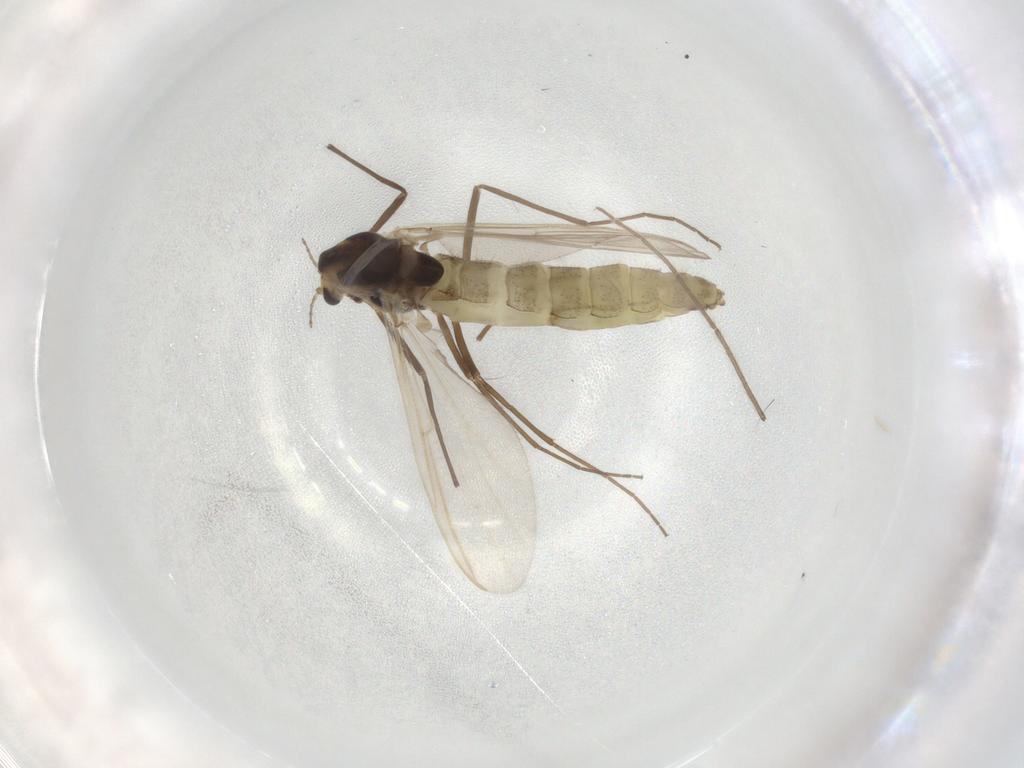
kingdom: Animalia
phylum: Arthropoda
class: Insecta
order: Diptera
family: Chironomidae
